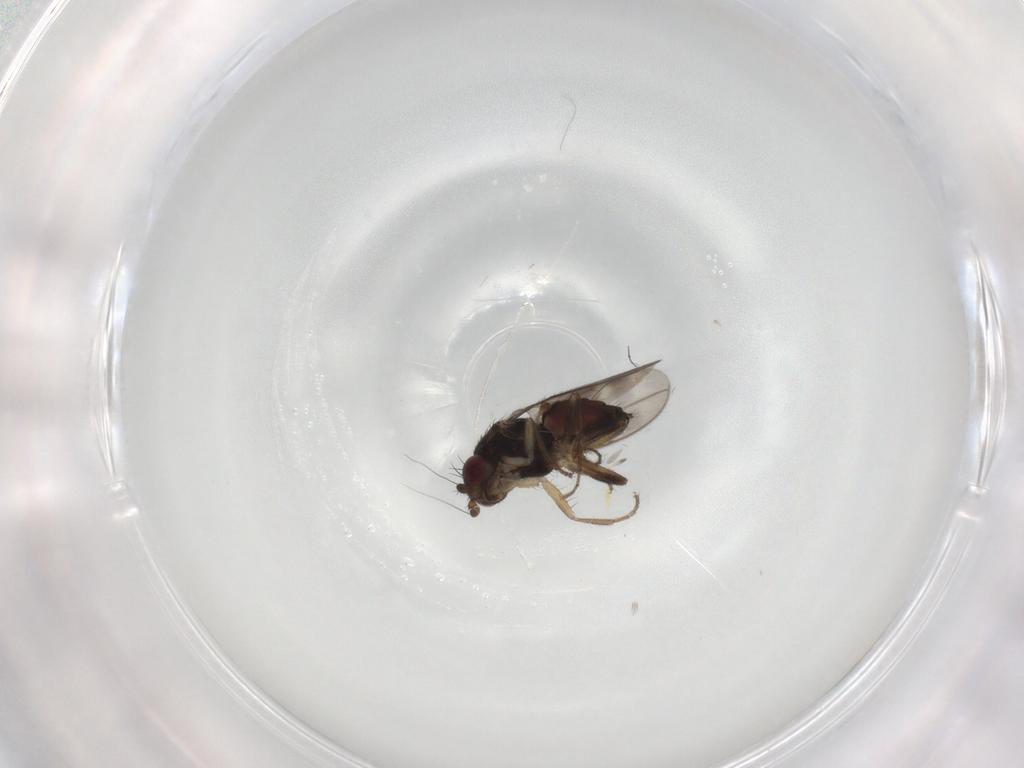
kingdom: Animalia
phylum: Arthropoda
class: Insecta
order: Diptera
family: Sphaeroceridae
